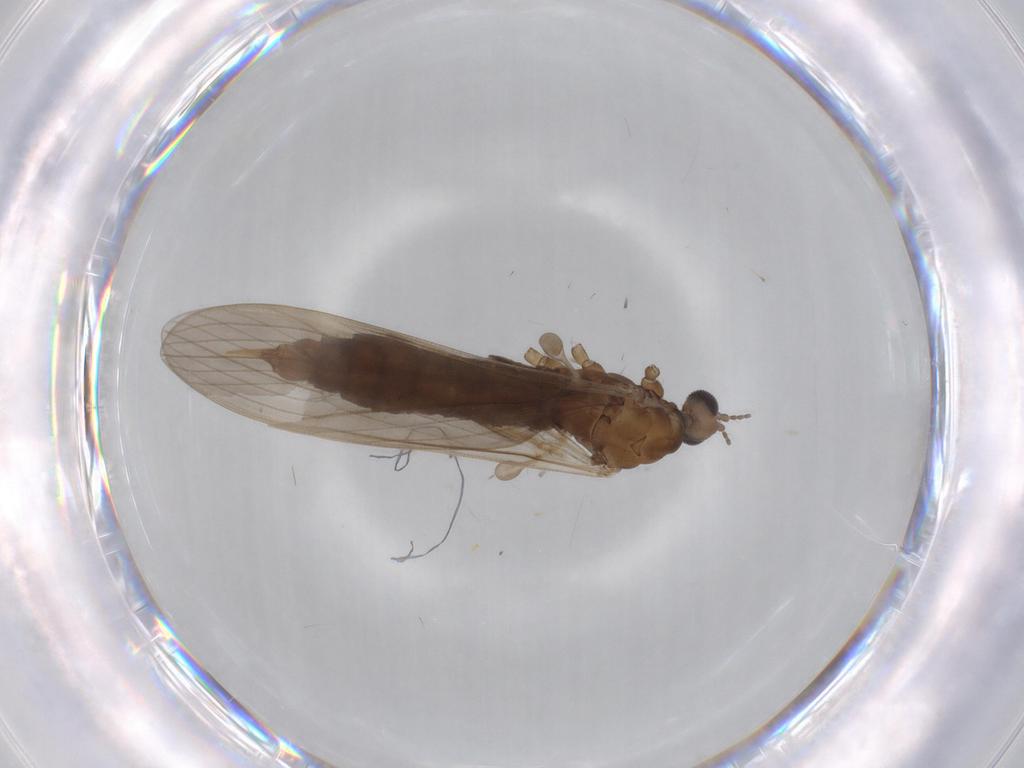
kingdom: Animalia
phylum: Arthropoda
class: Insecta
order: Diptera
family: Limoniidae
